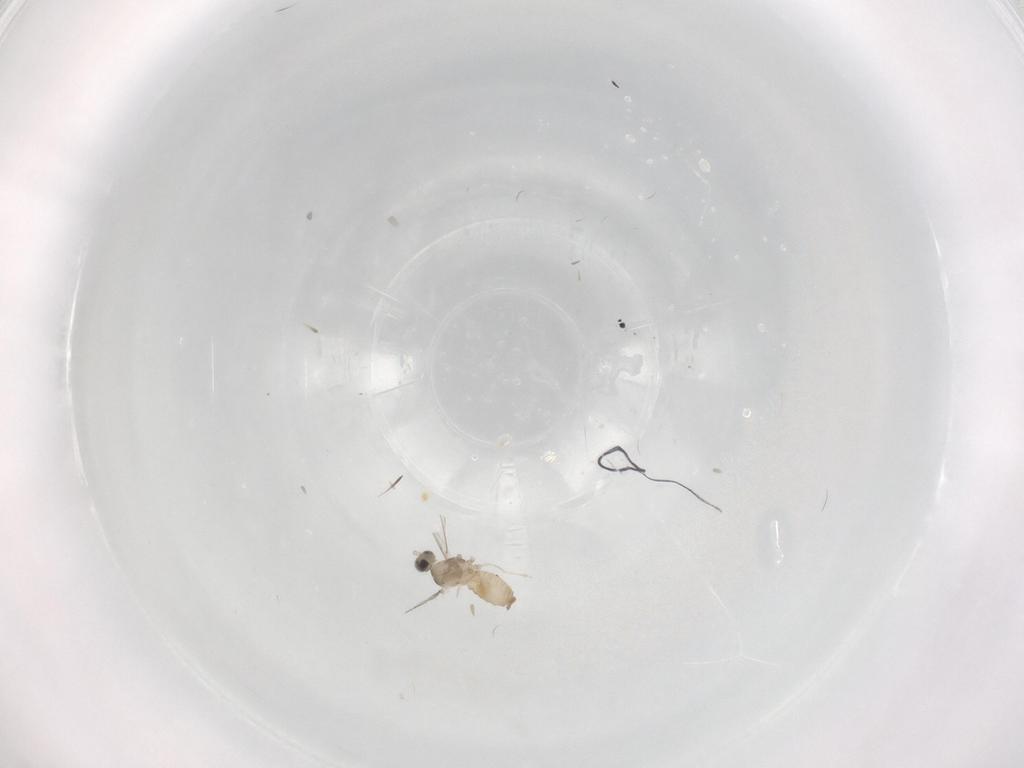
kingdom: Animalia
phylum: Arthropoda
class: Insecta
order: Diptera
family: Cecidomyiidae
